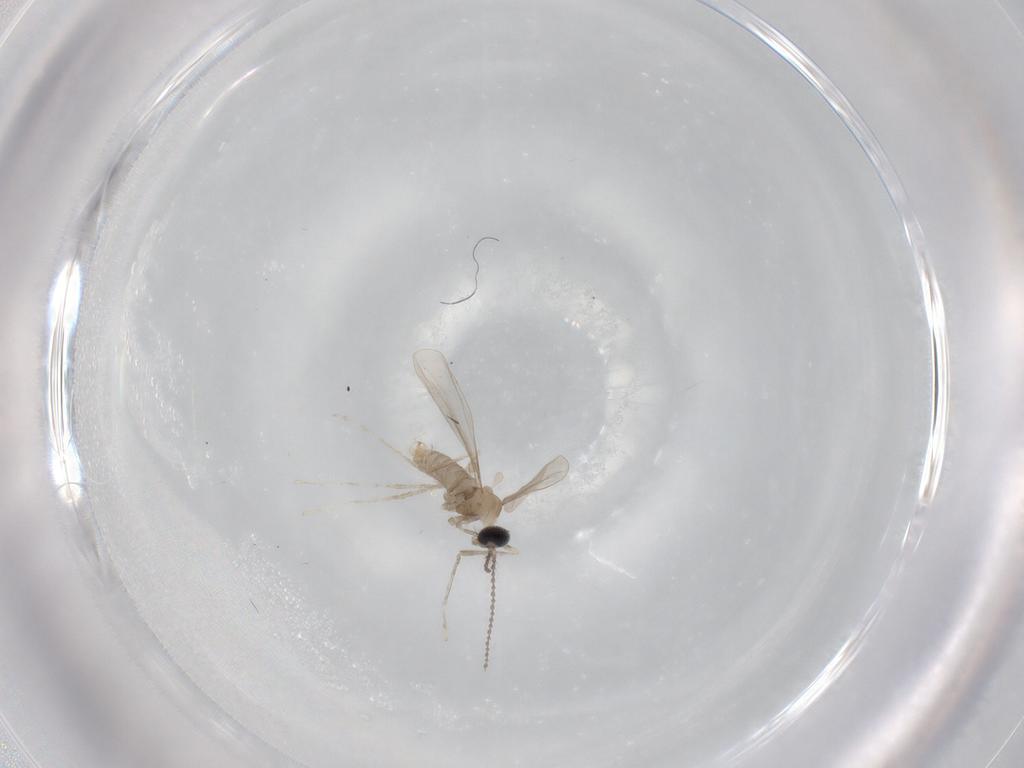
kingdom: Animalia
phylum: Arthropoda
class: Insecta
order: Diptera
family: Cecidomyiidae
